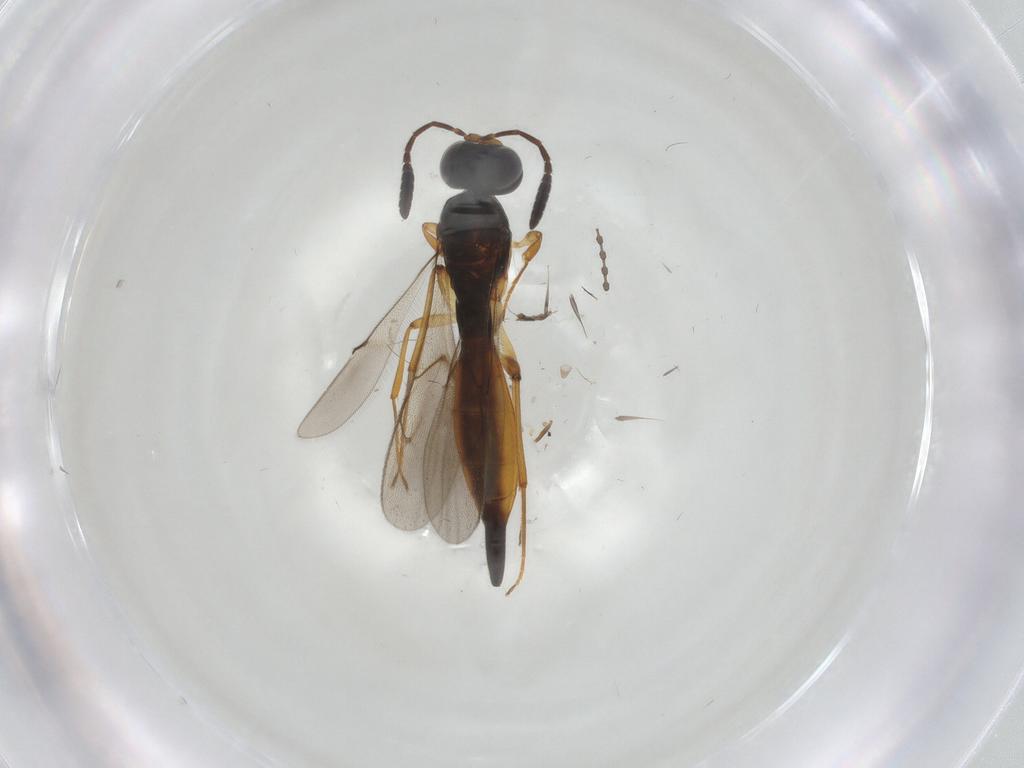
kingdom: Animalia
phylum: Arthropoda
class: Insecta
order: Hymenoptera
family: Scelionidae
